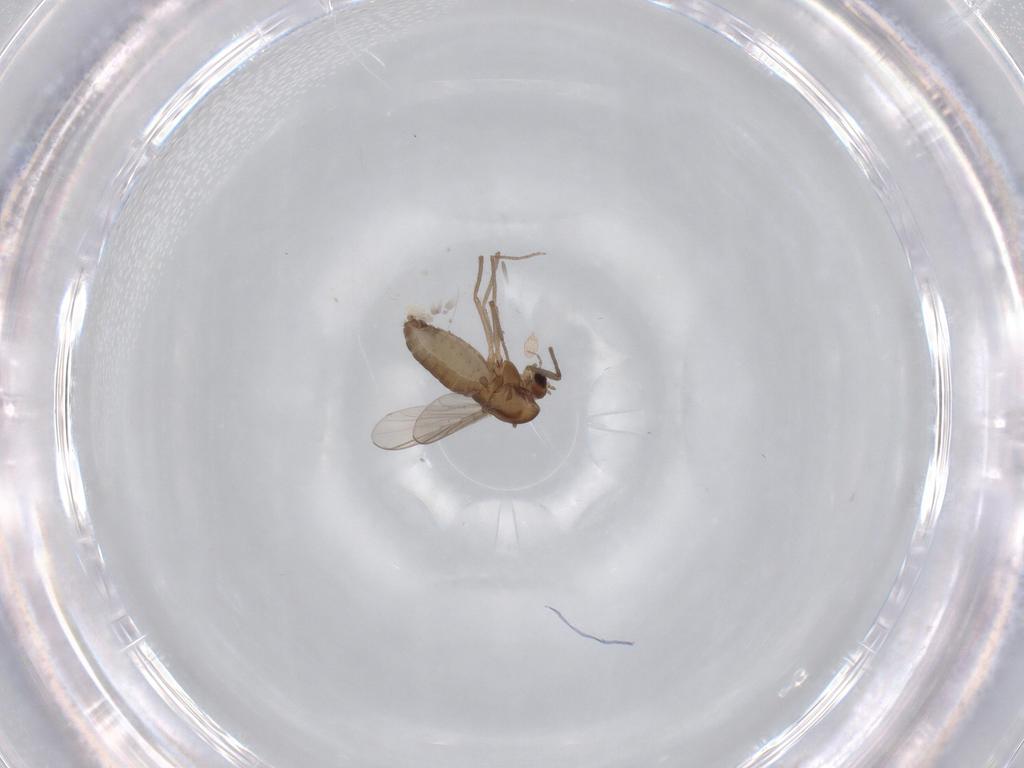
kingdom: Animalia
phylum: Arthropoda
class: Insecta
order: Diptera
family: Chironomidae
